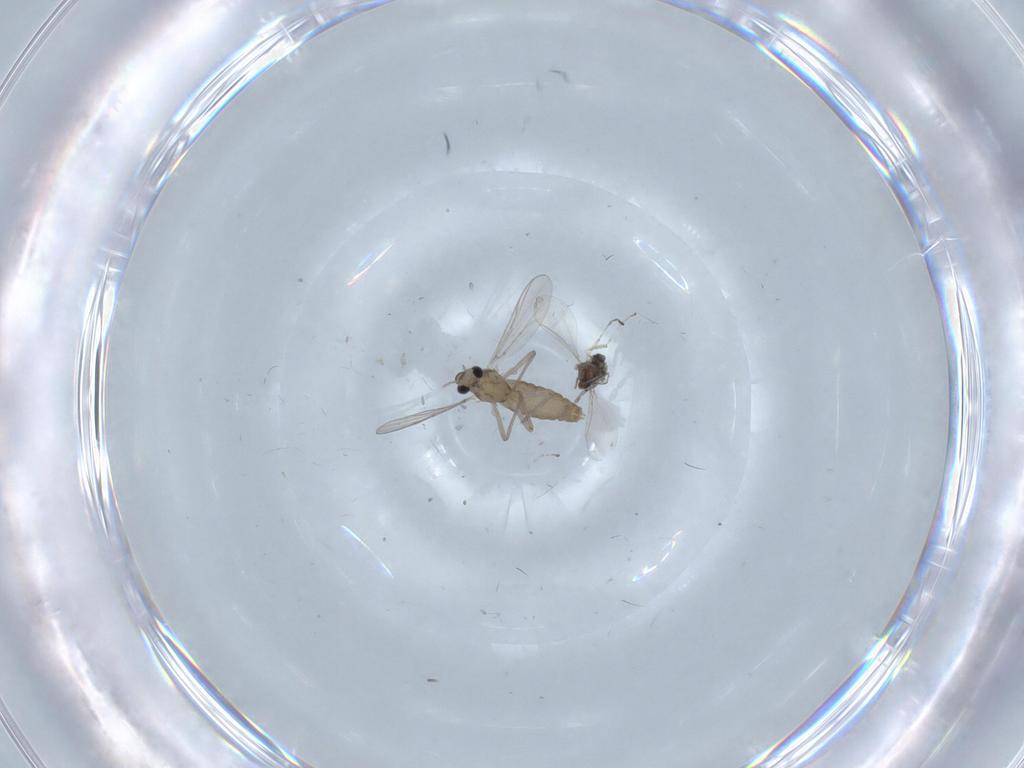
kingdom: Animalia
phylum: Arthropoda
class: Insecta
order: Diptera
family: Chironomidae
